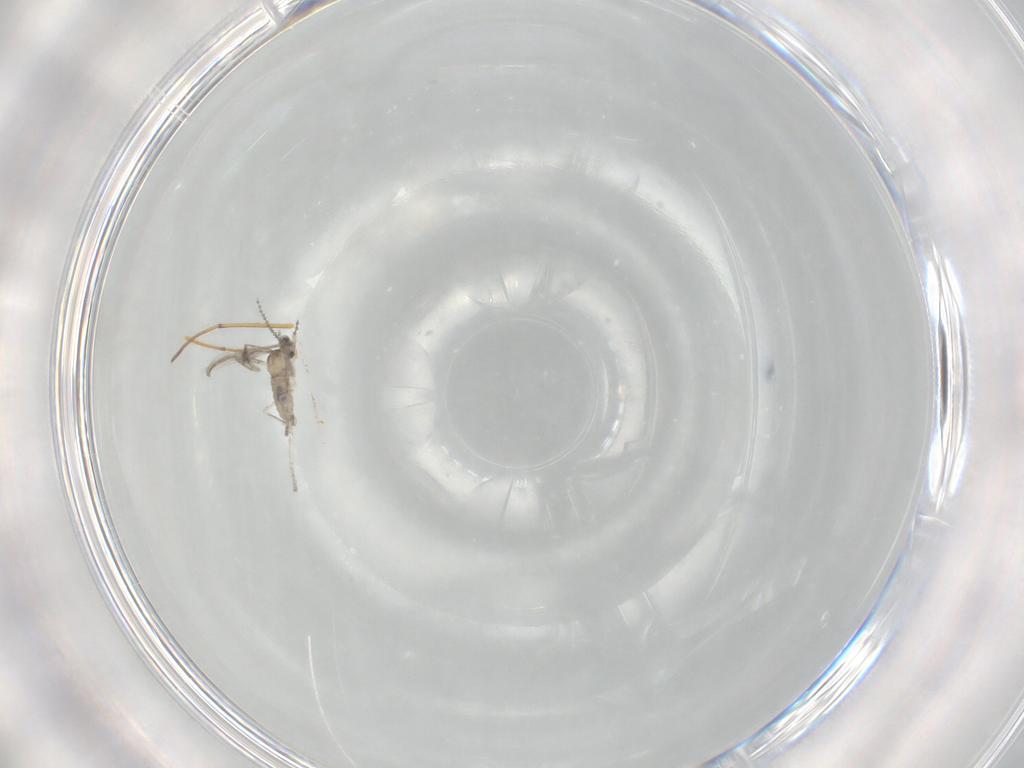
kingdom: Animalia
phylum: Arthropoda
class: Insecta
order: Diptera
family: Cecidomyiidae
